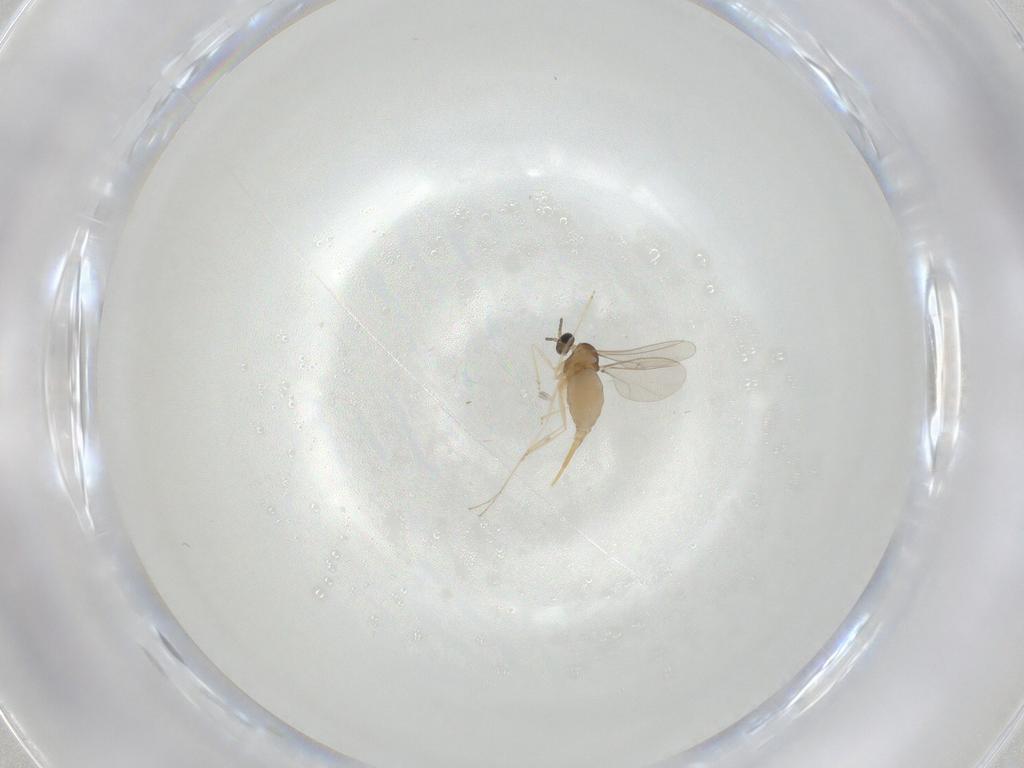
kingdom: Animalia
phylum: Arthropoda
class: Insecta
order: Diptera
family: Cecidomyiidae
